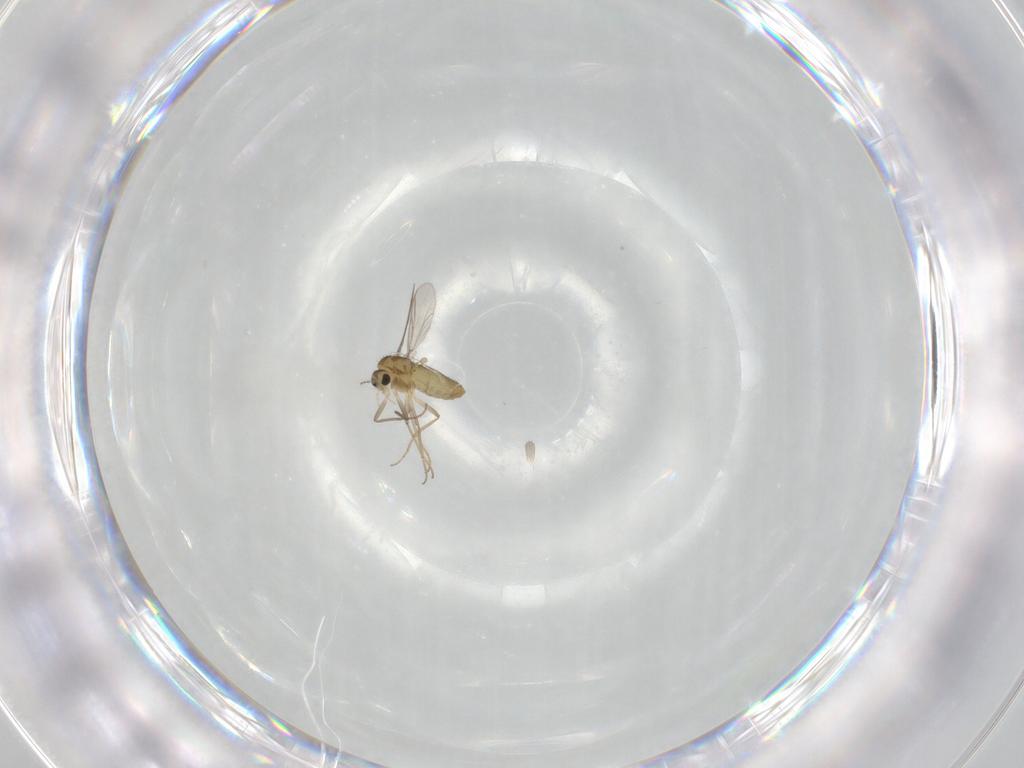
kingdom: Animalia
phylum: Arthropoda
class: Insecta
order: Diptera
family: Chironomidae
